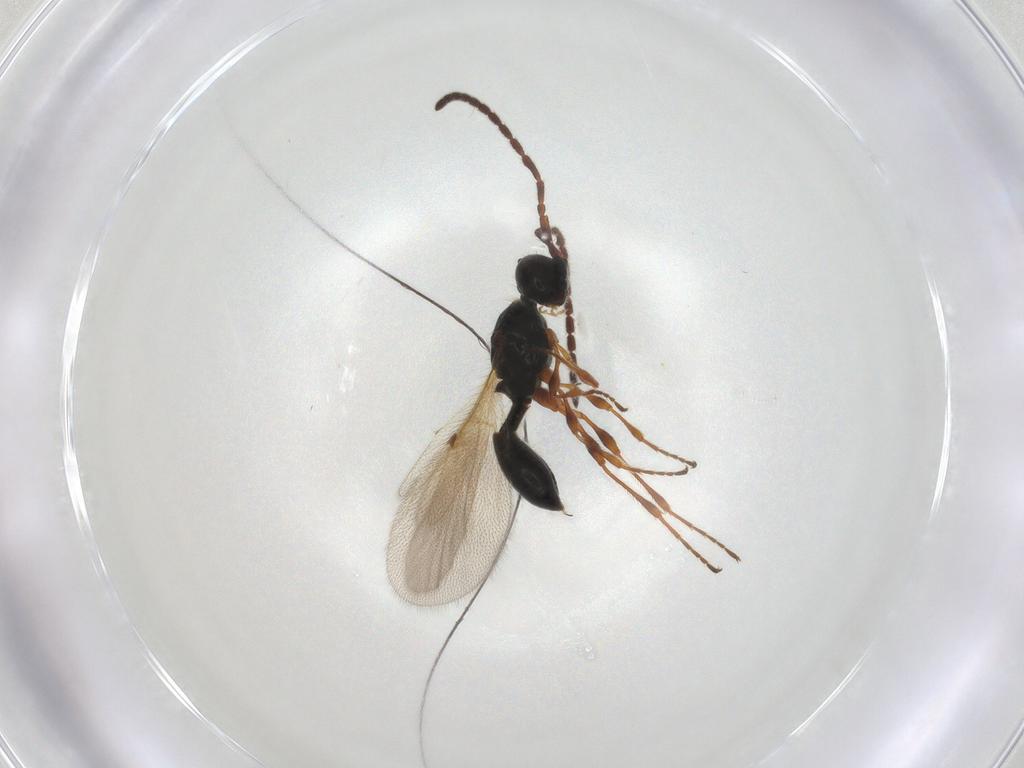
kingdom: Animalia
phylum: Arthropoda
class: Insecta
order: Hymenoptera
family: Diapriidae
